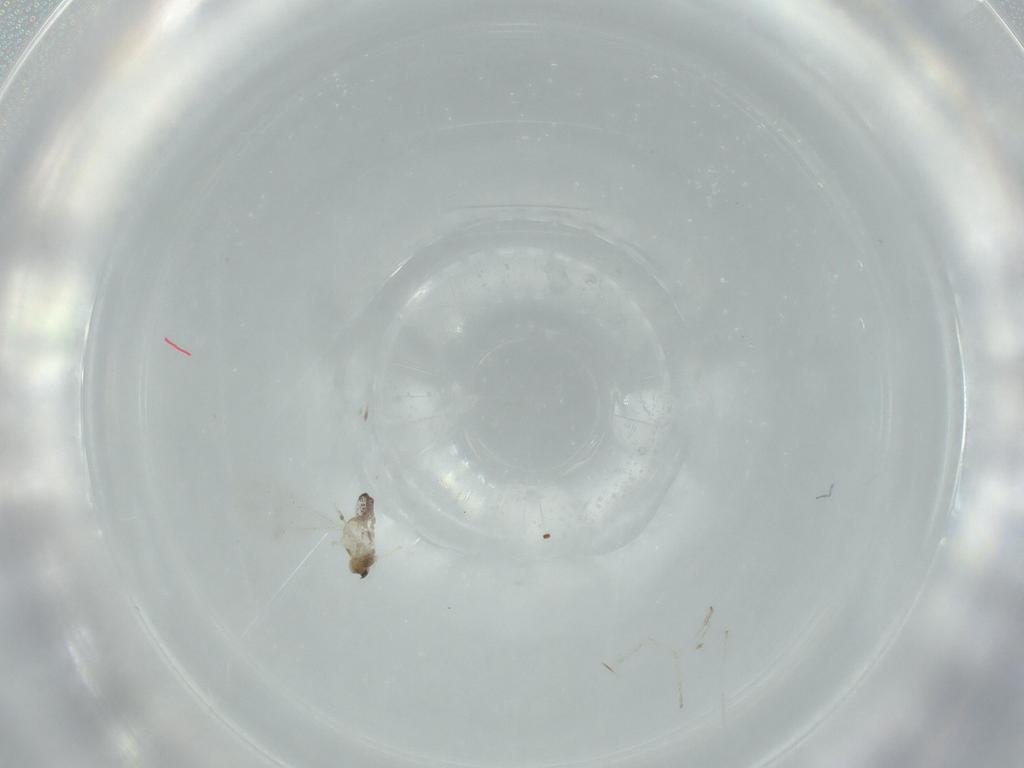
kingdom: Animalia
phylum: Arthropoda
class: Insecta
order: Diptera
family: Cecidomyiidae
